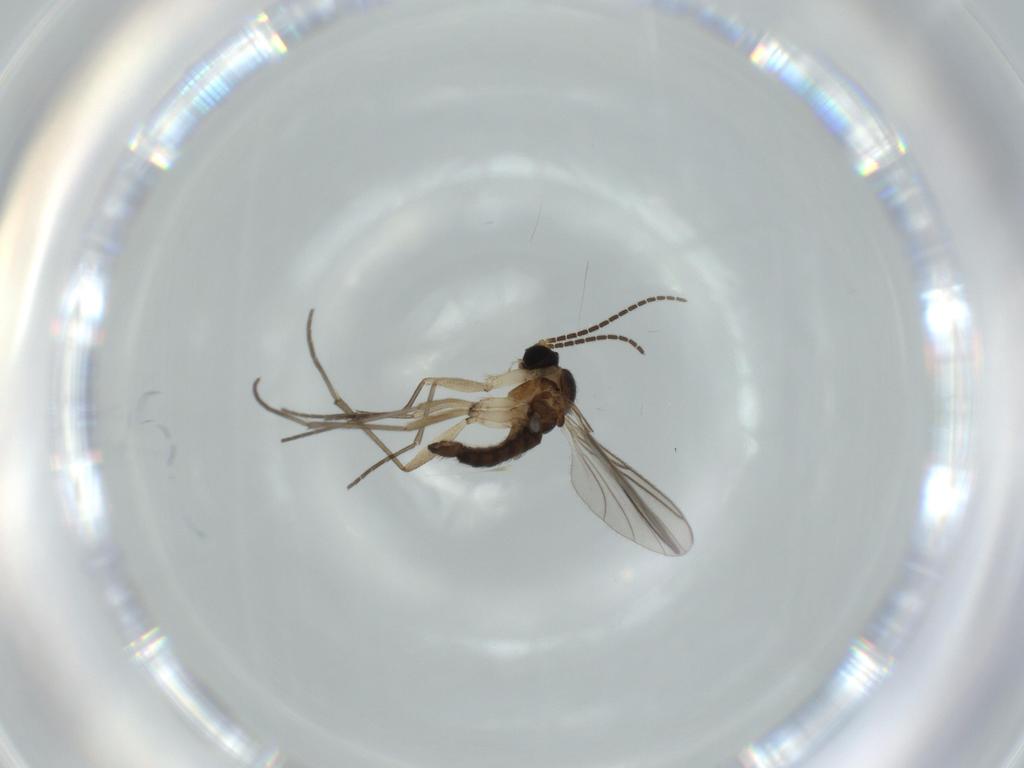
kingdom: Animalia
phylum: Arthropoda
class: Insecta
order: Diptera
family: Sciaridae
